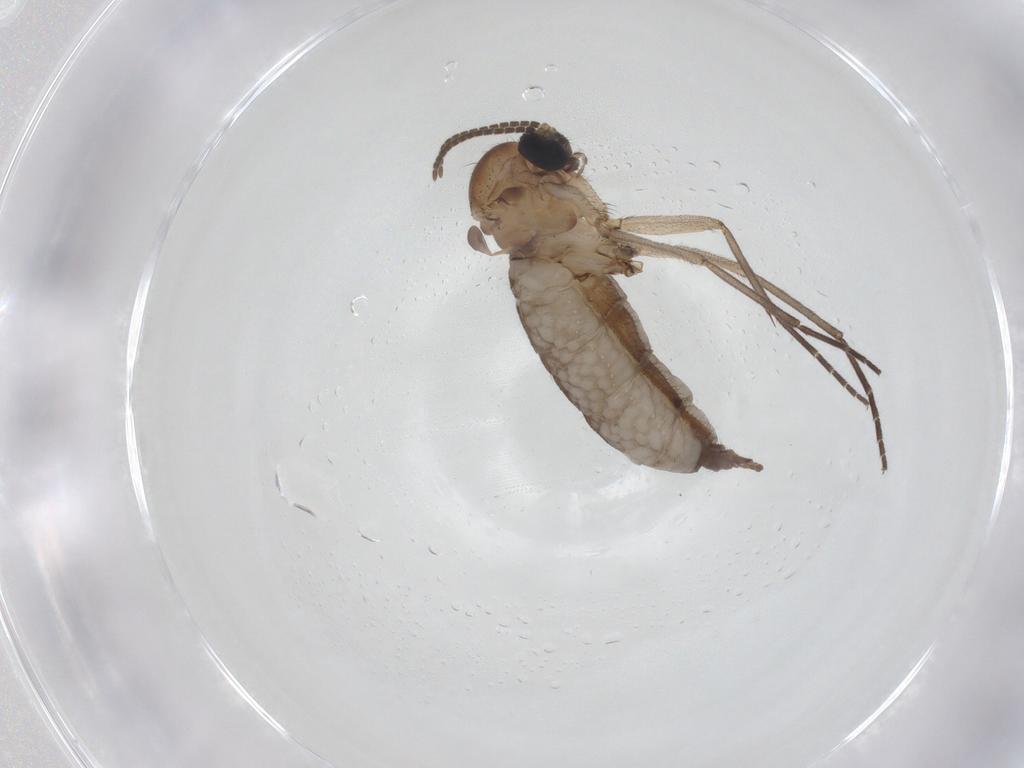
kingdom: Animalia
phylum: Arthropoda
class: Insecta
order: Diptera
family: Sciaridae
